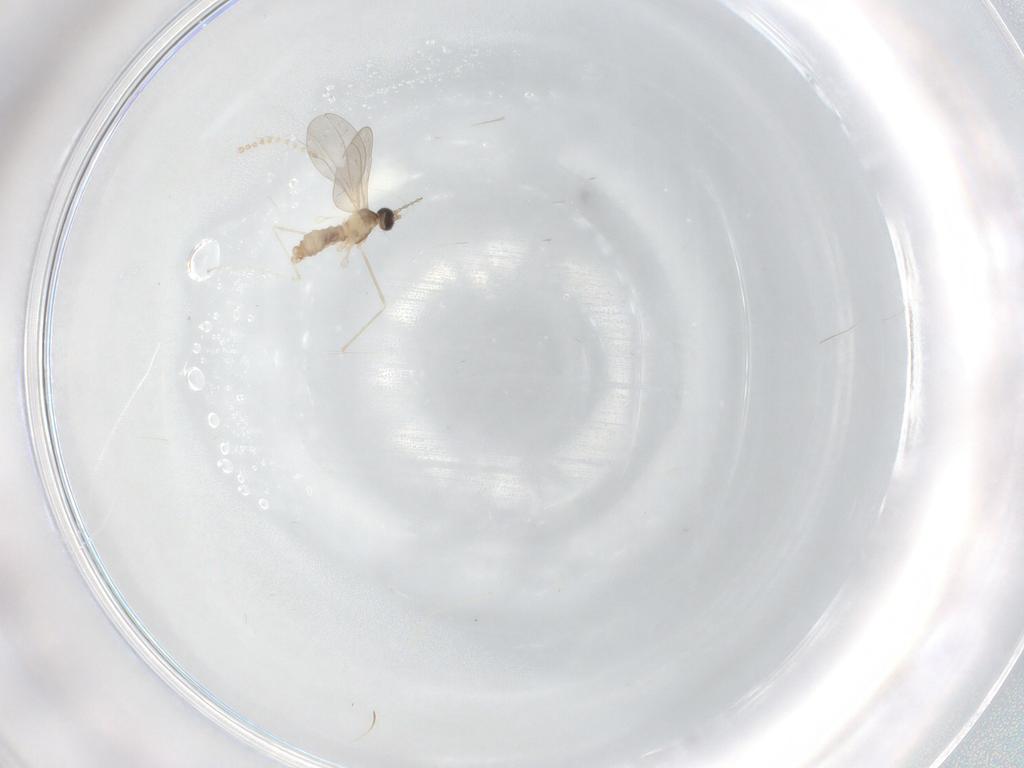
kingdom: Animalia
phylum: Arthropoda
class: Insecta
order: Diptera
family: Cecidomyiidae
